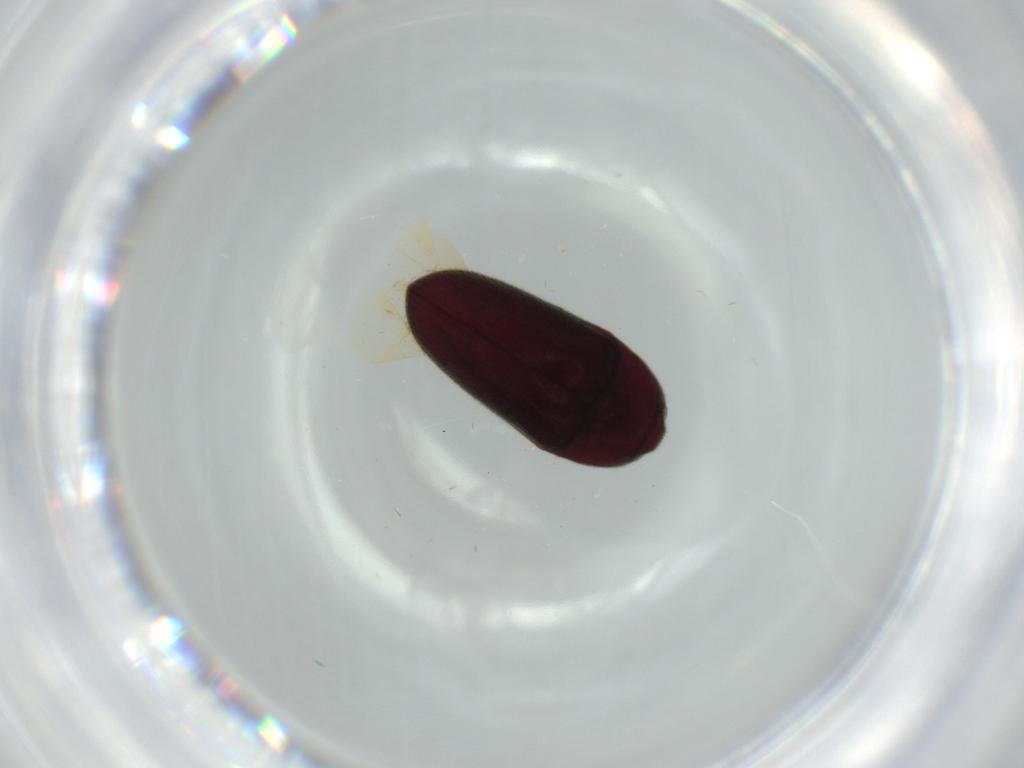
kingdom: Animalia
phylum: Arthropoda
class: Insecta
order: Coleoptera
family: Throscidae
